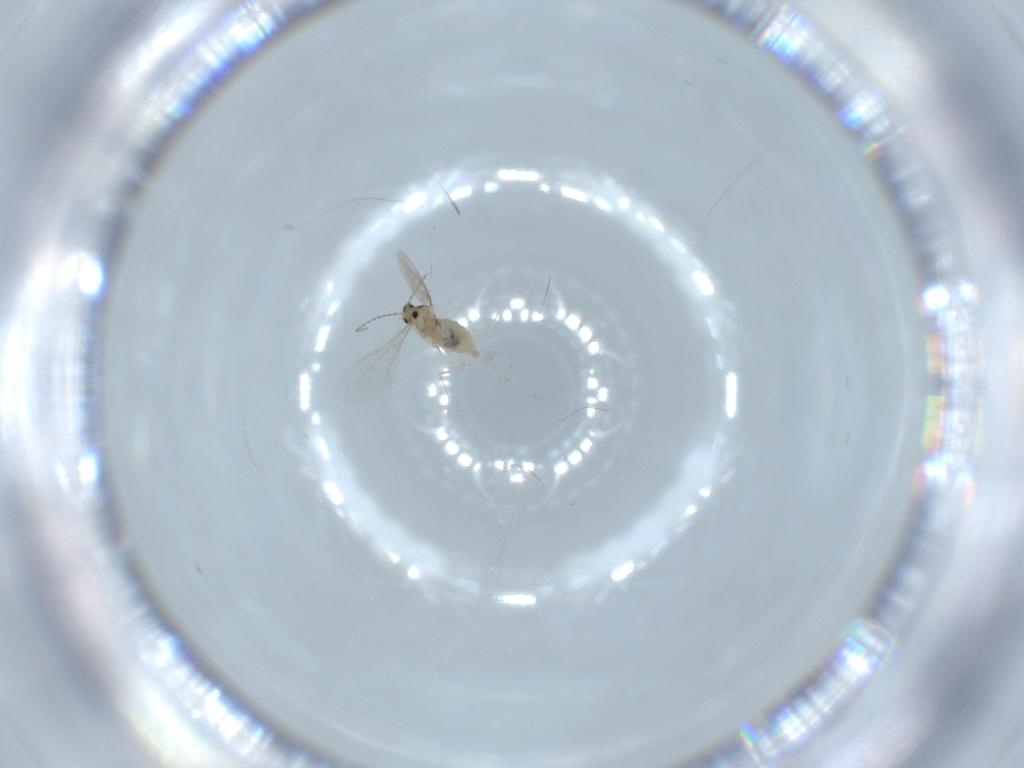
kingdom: Animalia
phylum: Arthropoda
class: Insecta
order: Diptera
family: Cecidomyiidae
